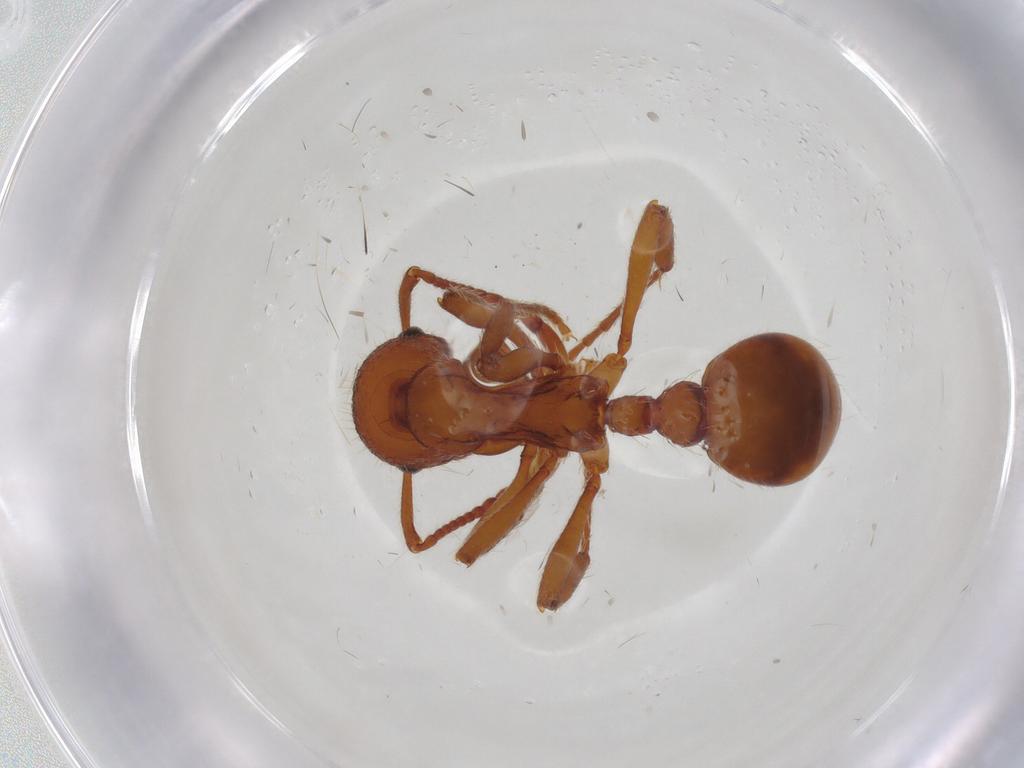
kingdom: Animalia
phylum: Arthropoda
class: Insecta
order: Hymenoptera
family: Formicidae
